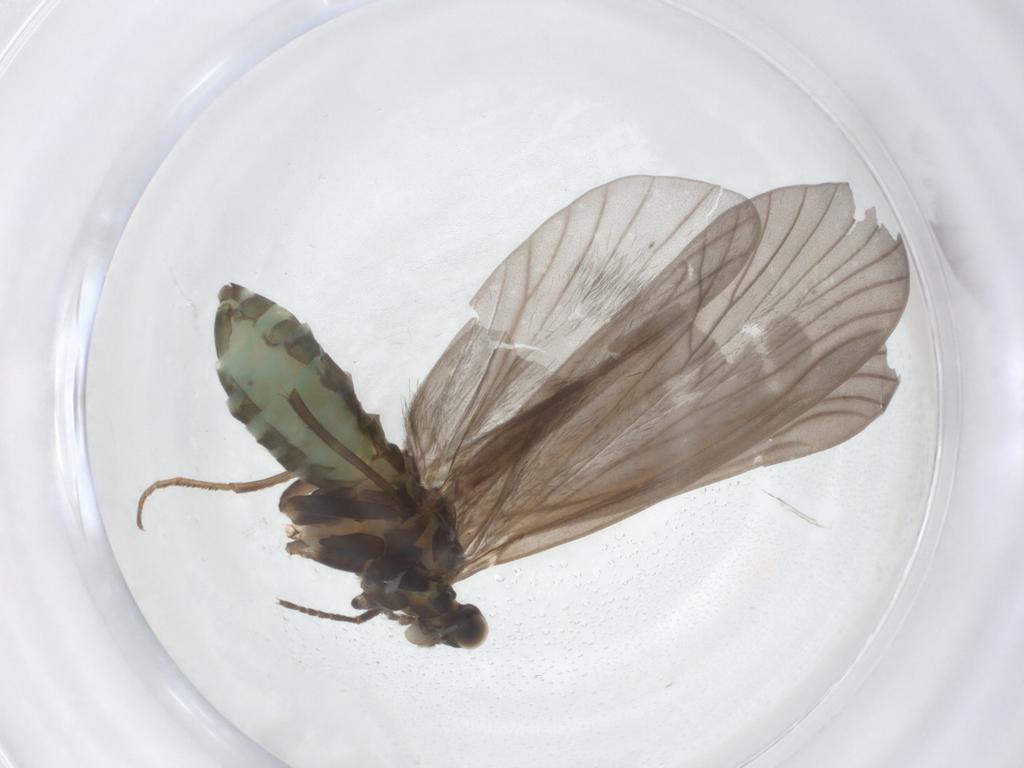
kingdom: Animalia
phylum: Arthropoda
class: Insecta
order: Trichoptera
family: Brachycentridae
